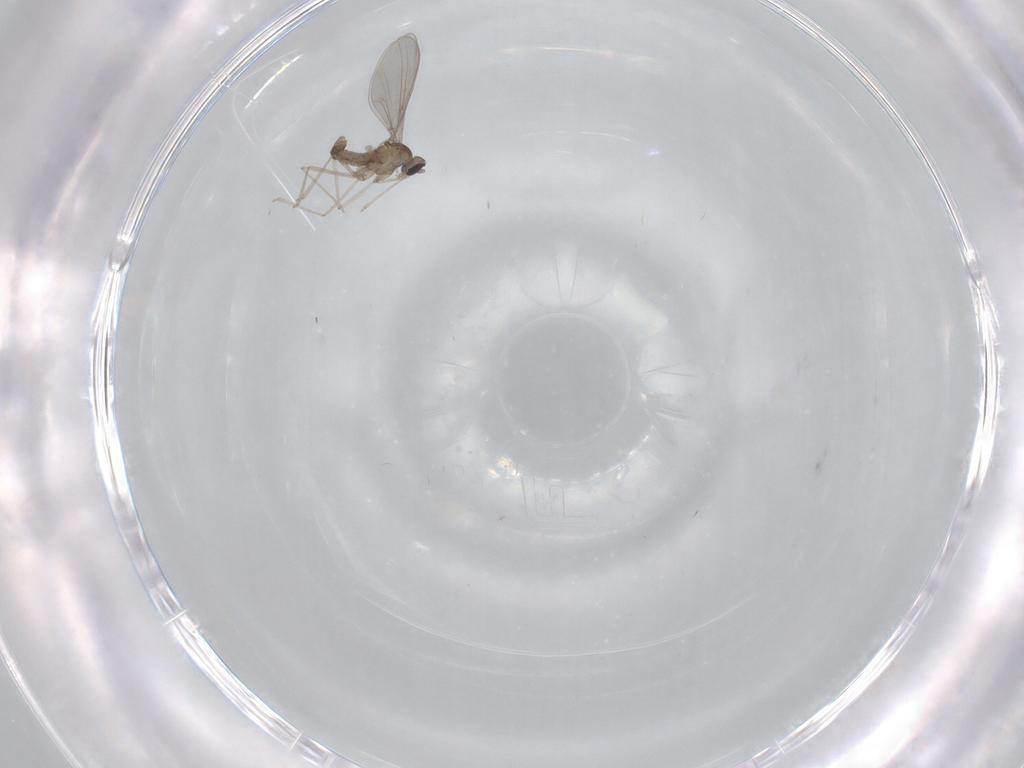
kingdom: Animalia
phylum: Arthropoda
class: Insecta
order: Diptera
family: Cecidomyiidae
